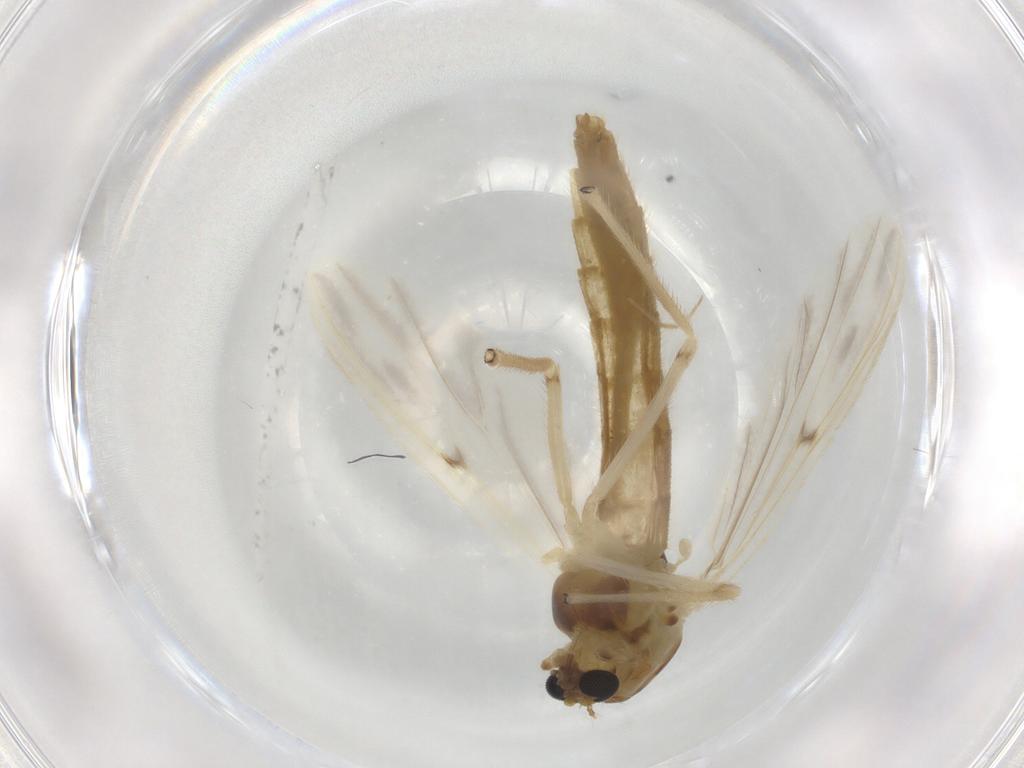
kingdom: Animalia
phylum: Arthropoda
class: Insecta
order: Diptera
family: Chironomidae
